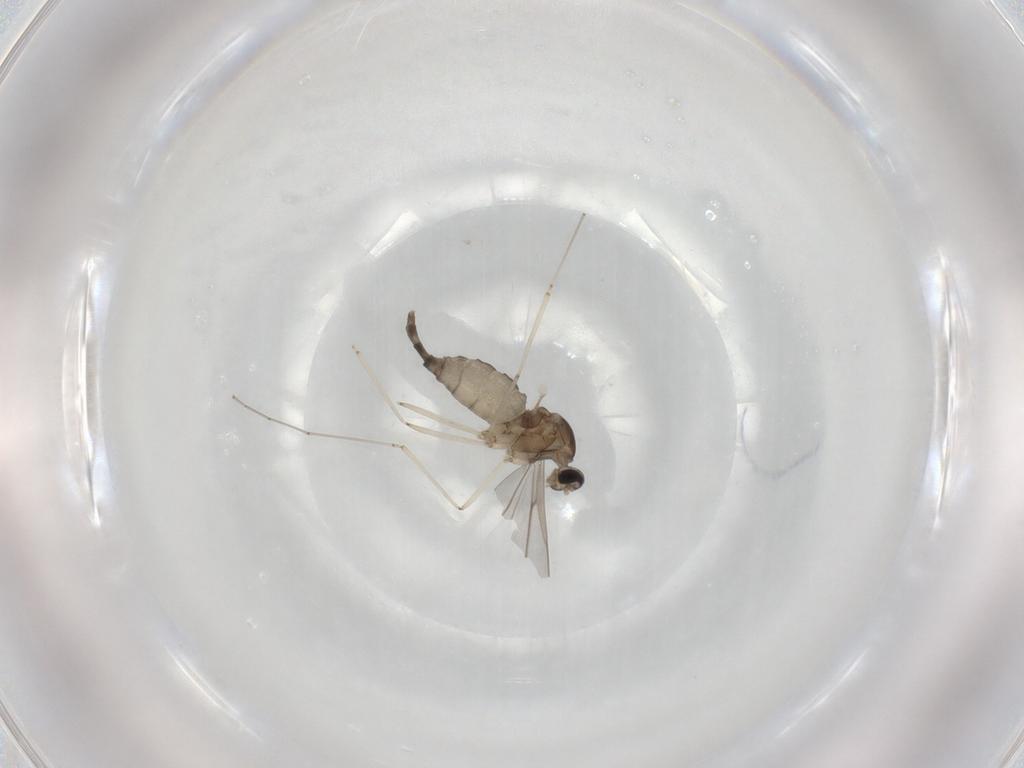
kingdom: Animalia
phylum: Arthropoda
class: Insecta
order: Diptera
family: Cecidomyiidae
